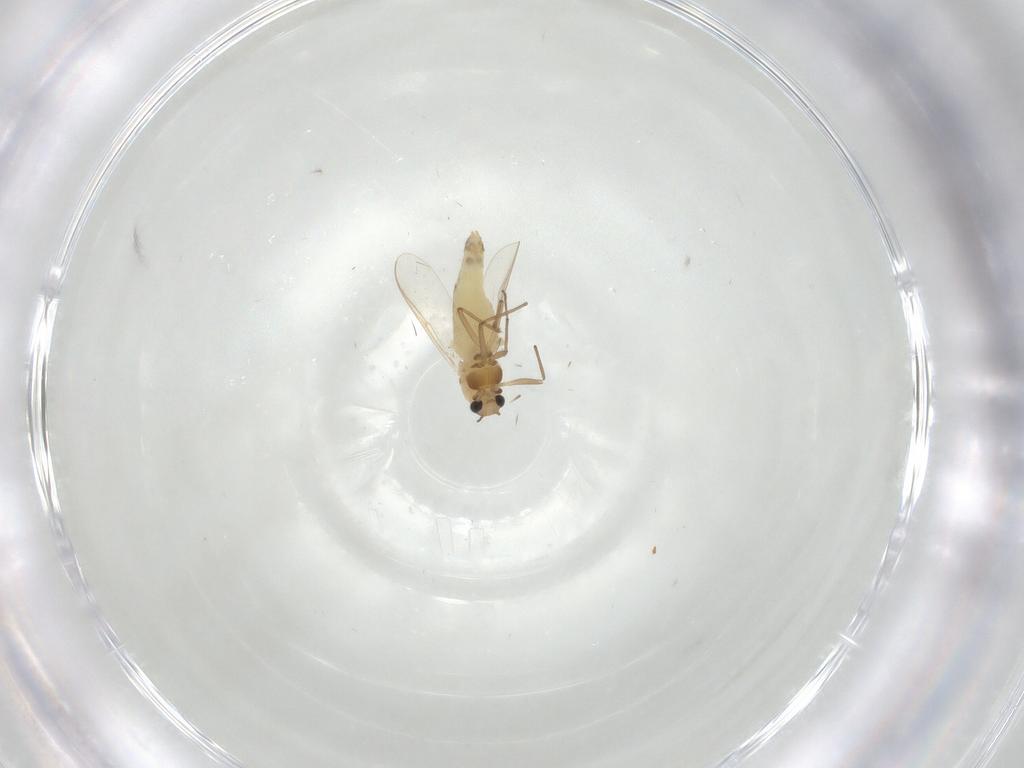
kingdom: Animalia
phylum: Arthropoda
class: Insecta
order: Diptera
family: Chironomidae
